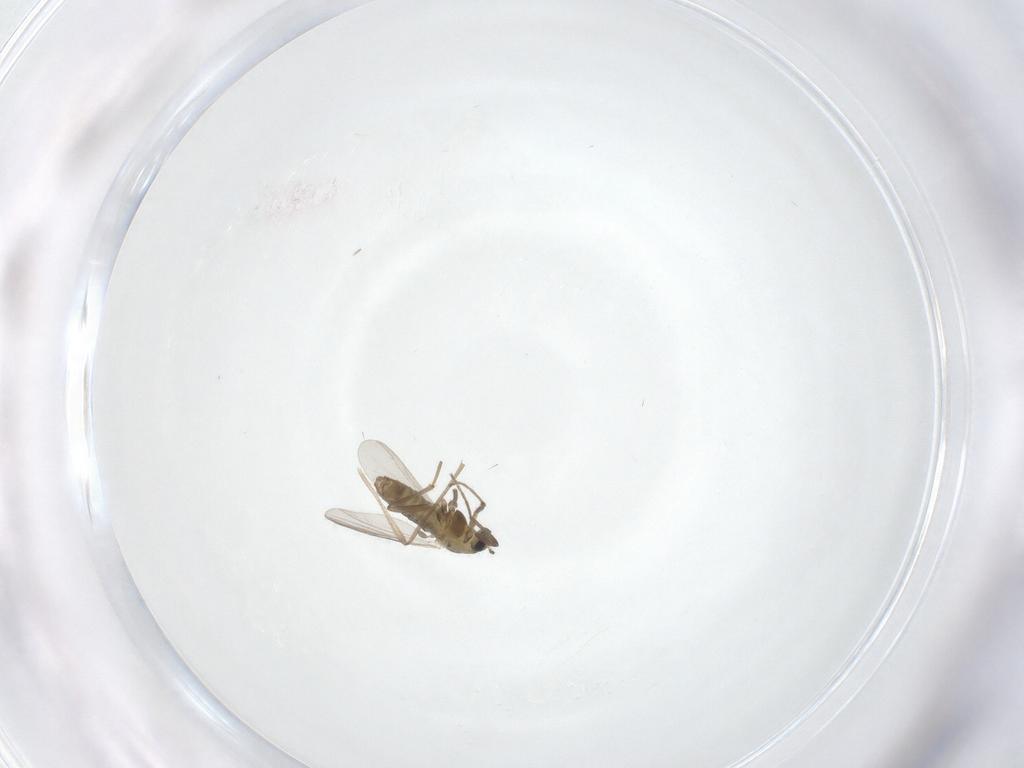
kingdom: Animalia
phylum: Arthropoda
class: Insecta
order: Diptera
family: Chironomidae
